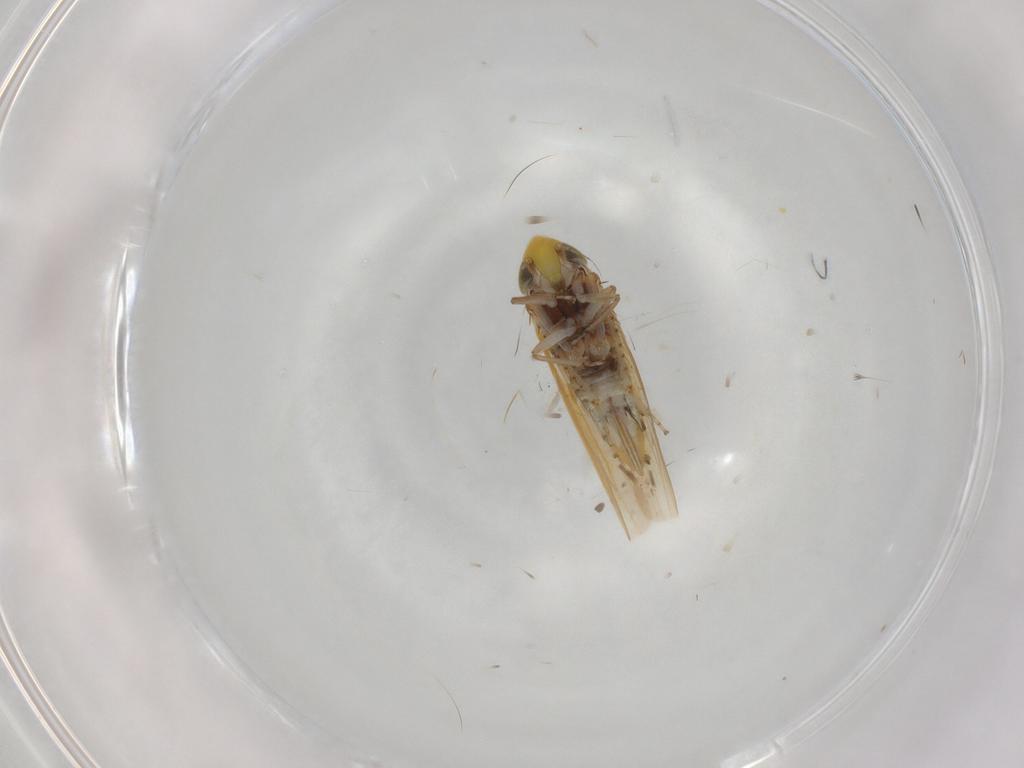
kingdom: Animalia
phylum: Arthropoda
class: Insecta
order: Hemiptera
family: Cicadellidae
